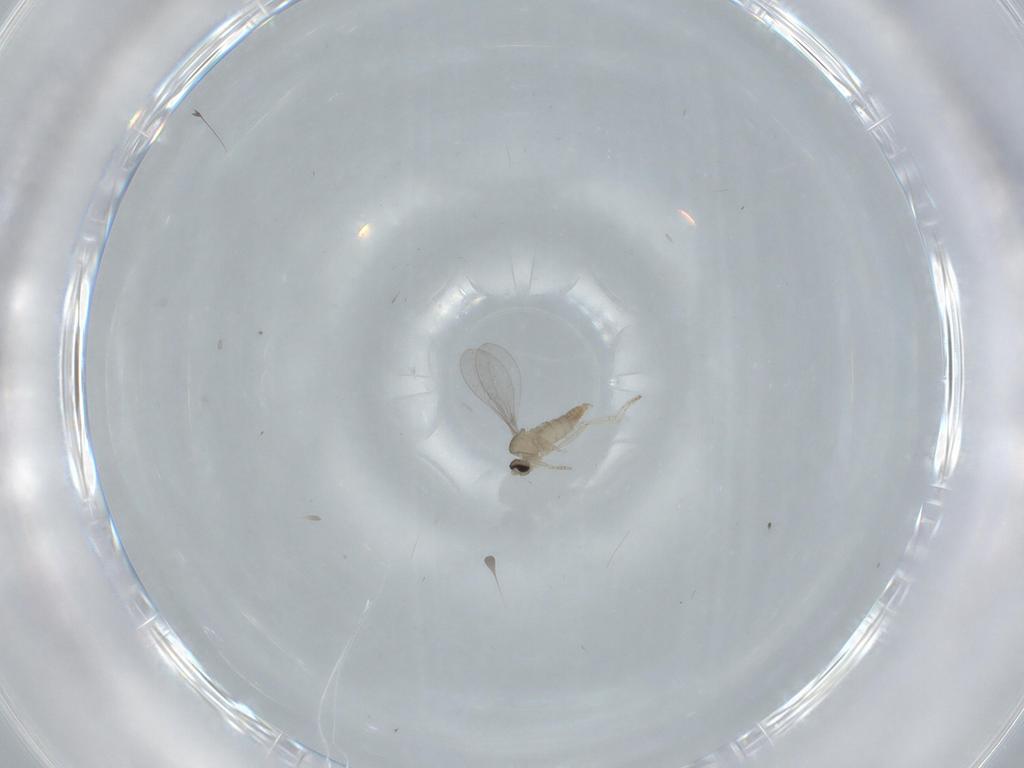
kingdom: Animalia
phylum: Arthropoda
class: Insecta
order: Diptera
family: Cecidomyiidae
